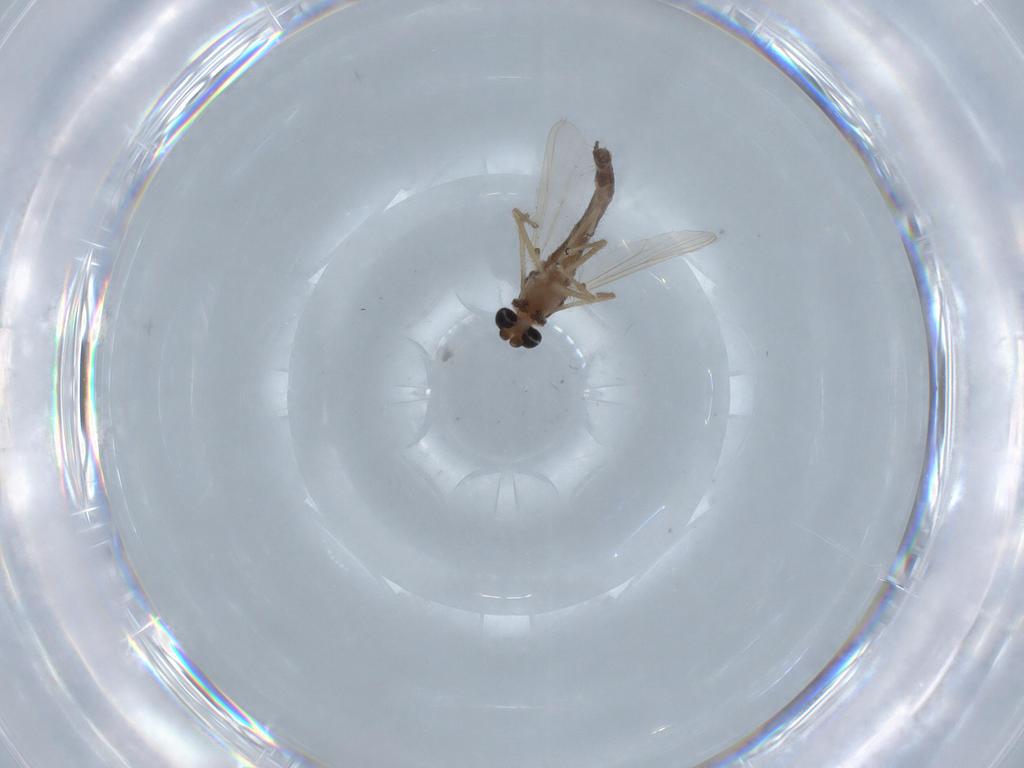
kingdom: Animalia
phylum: Arthropoda
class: Insecta
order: Diptera
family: Chironomidae
